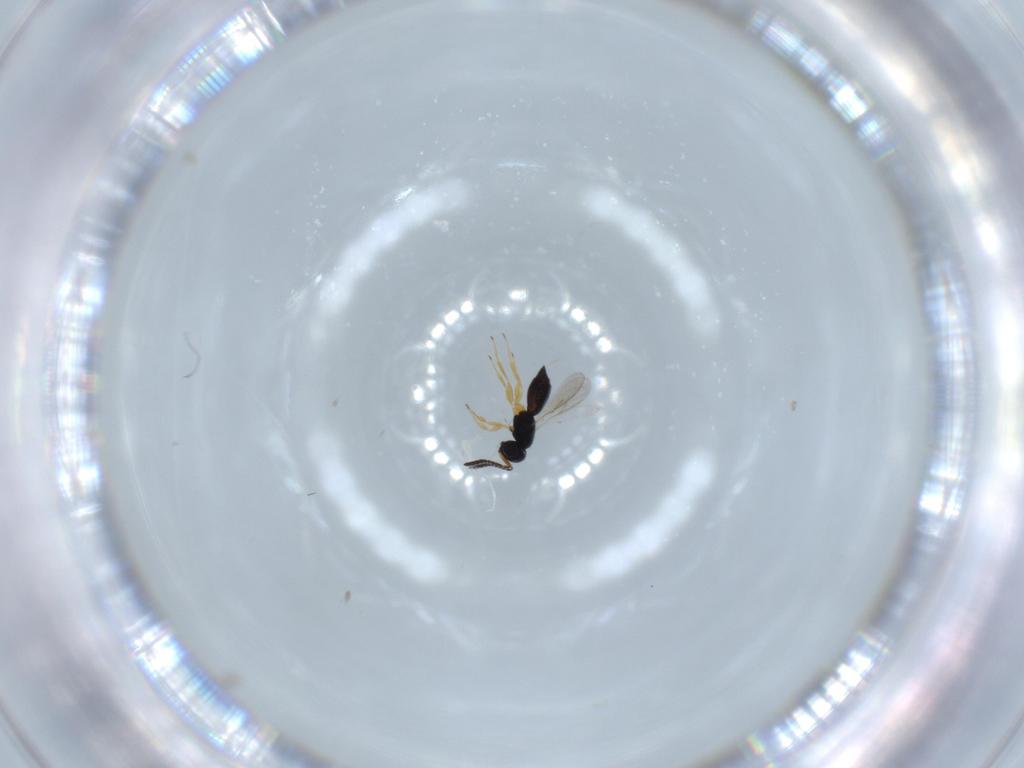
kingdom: Animalia
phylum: Arthropoda
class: Insecta
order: Hymenoptera
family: Scelionidae
